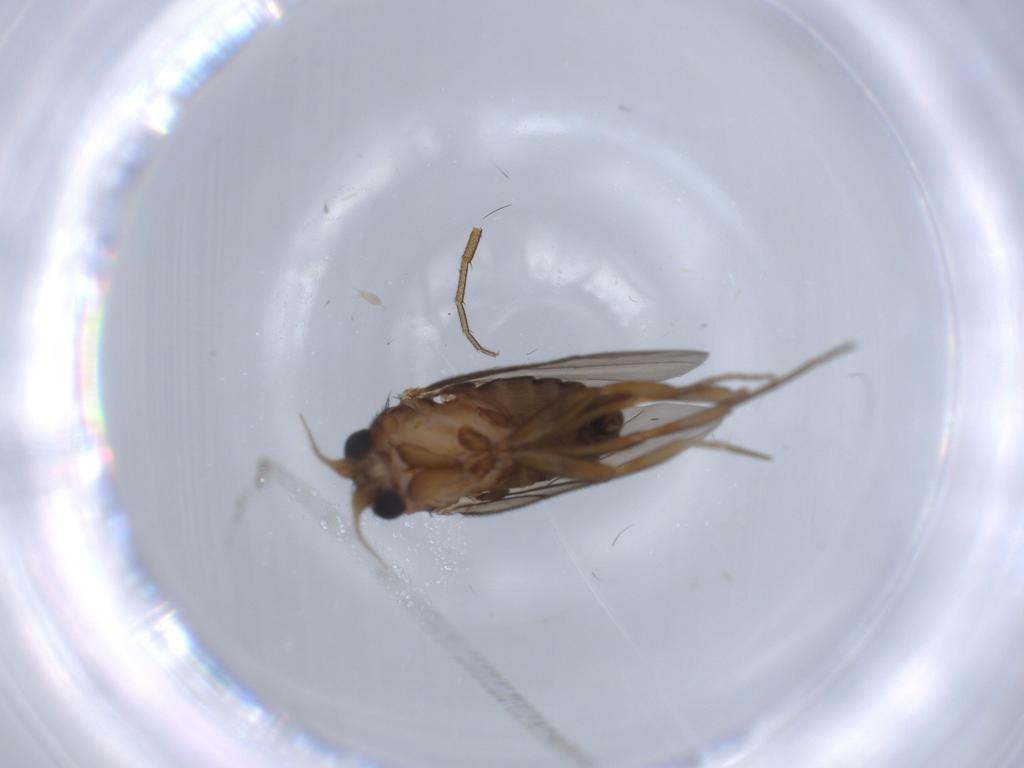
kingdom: Animalia
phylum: Arthropoda
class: Insecta
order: Diptera
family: Phoridae
